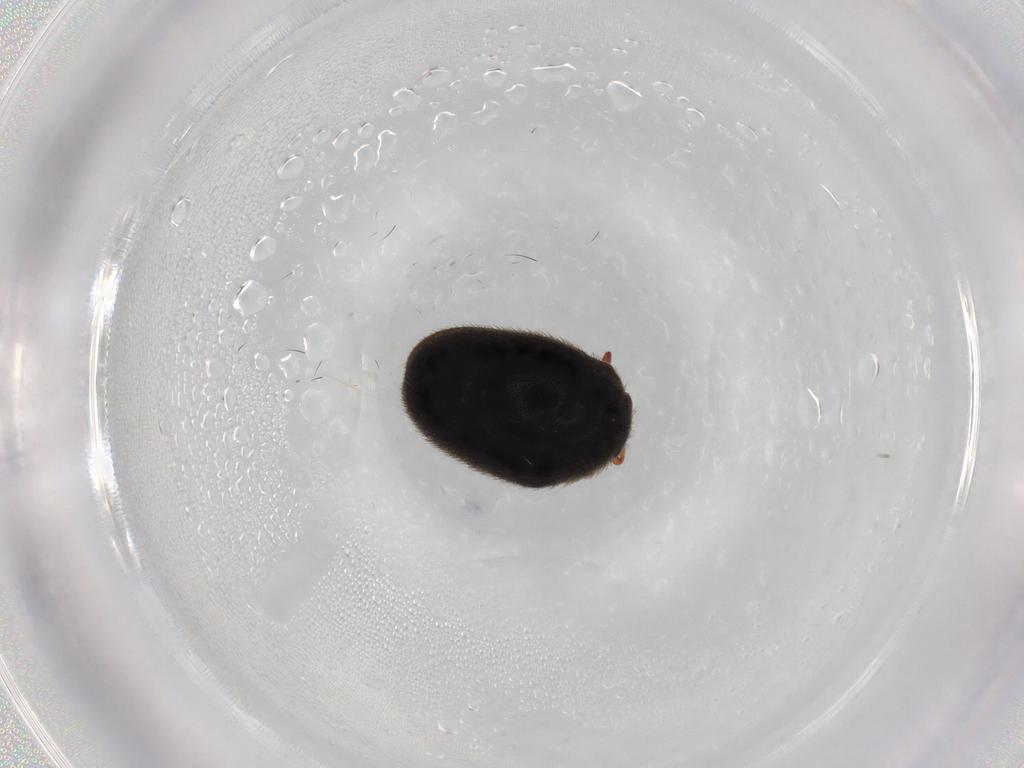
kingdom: Animalia
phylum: Arthropoda
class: Insecta
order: Coleoptera
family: Dermestidae
